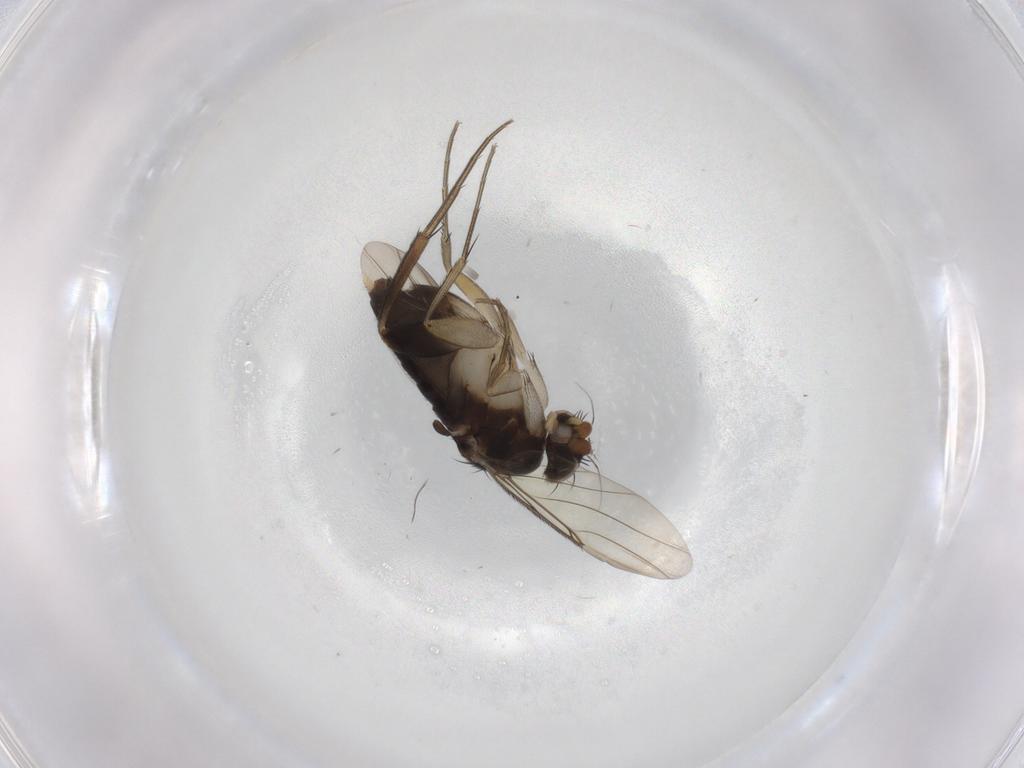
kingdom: Animalia
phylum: Arthropoda
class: Insecta
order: Diptera
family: Phoridae
